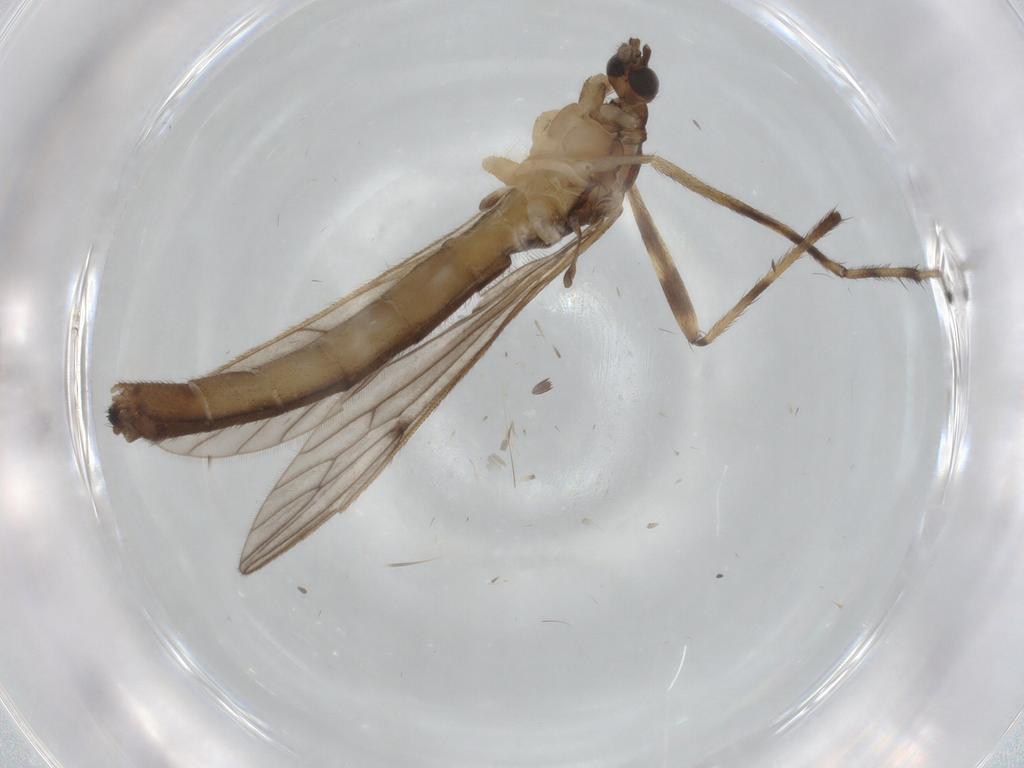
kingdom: Animalia
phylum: Arthropoda
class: Insecta
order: Diptera
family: Limoniidae
